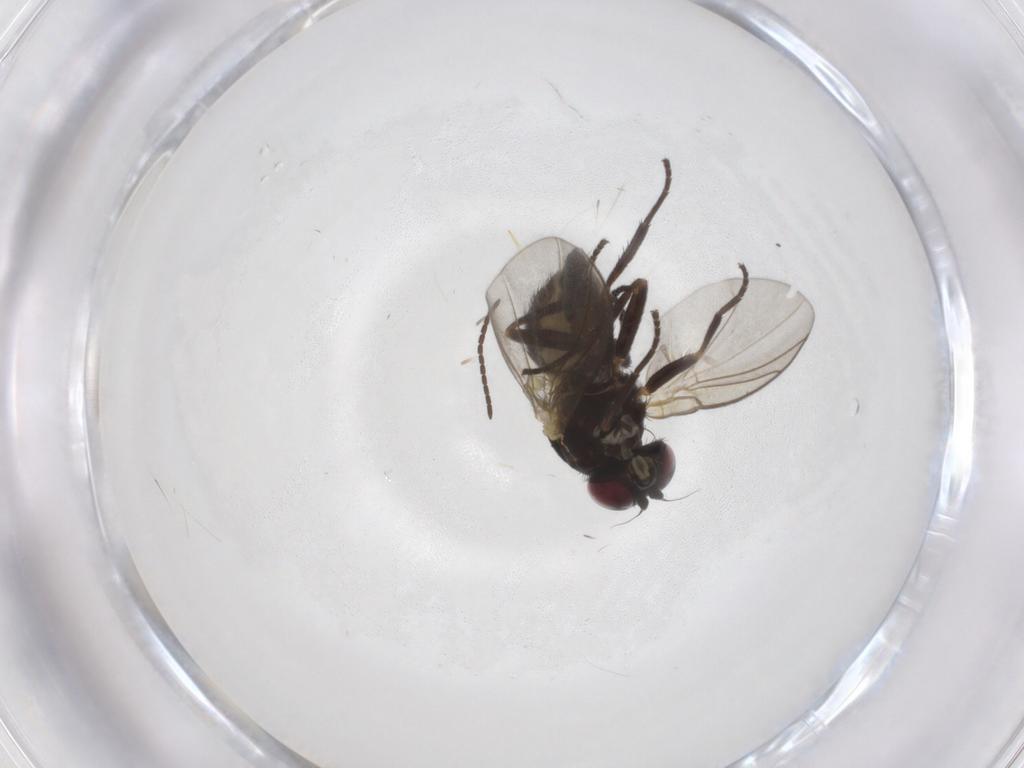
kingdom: Animalia
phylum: Arthropoda
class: Insecta
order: Diptera
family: Agromyzidae
